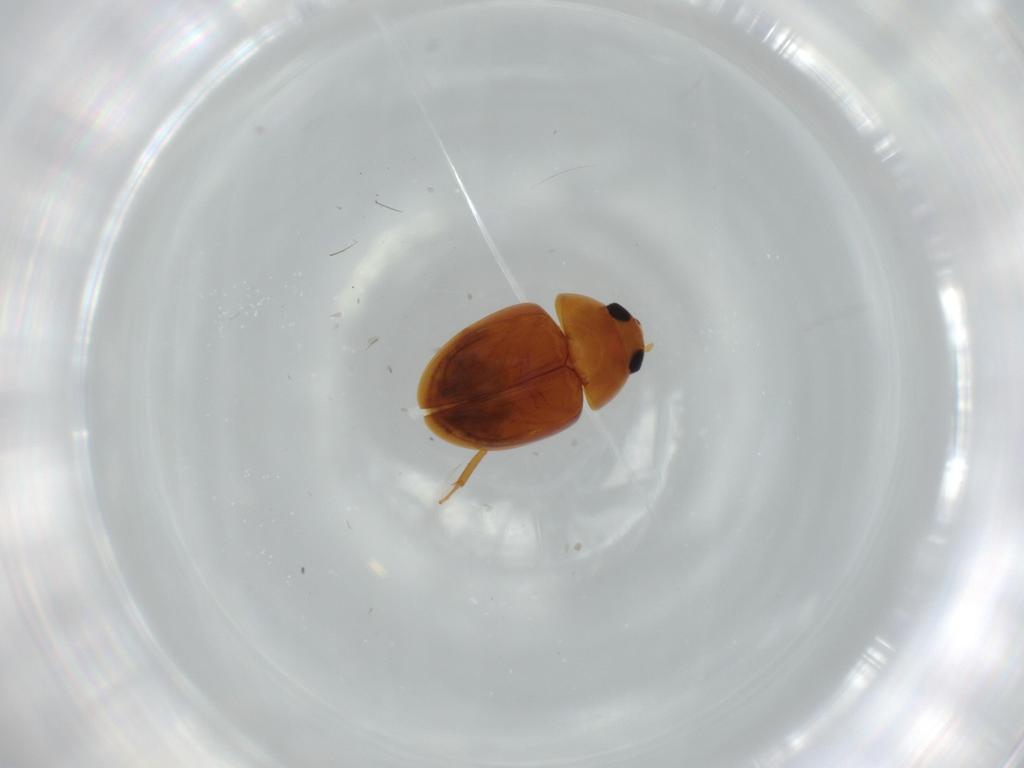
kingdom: Animalia
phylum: Arthropoda
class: Insecta
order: Coleoptera
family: Phalacridae
